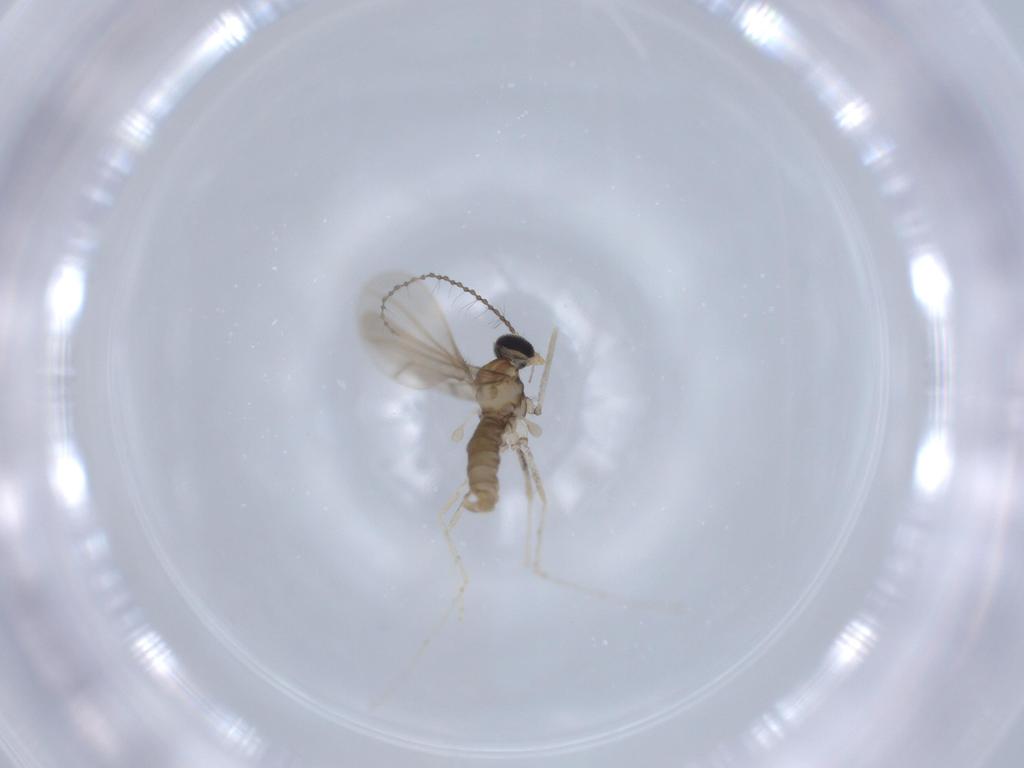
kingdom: Animalia
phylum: Arthropoda
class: Insecta
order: Diptera
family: Cecidomyiidae
